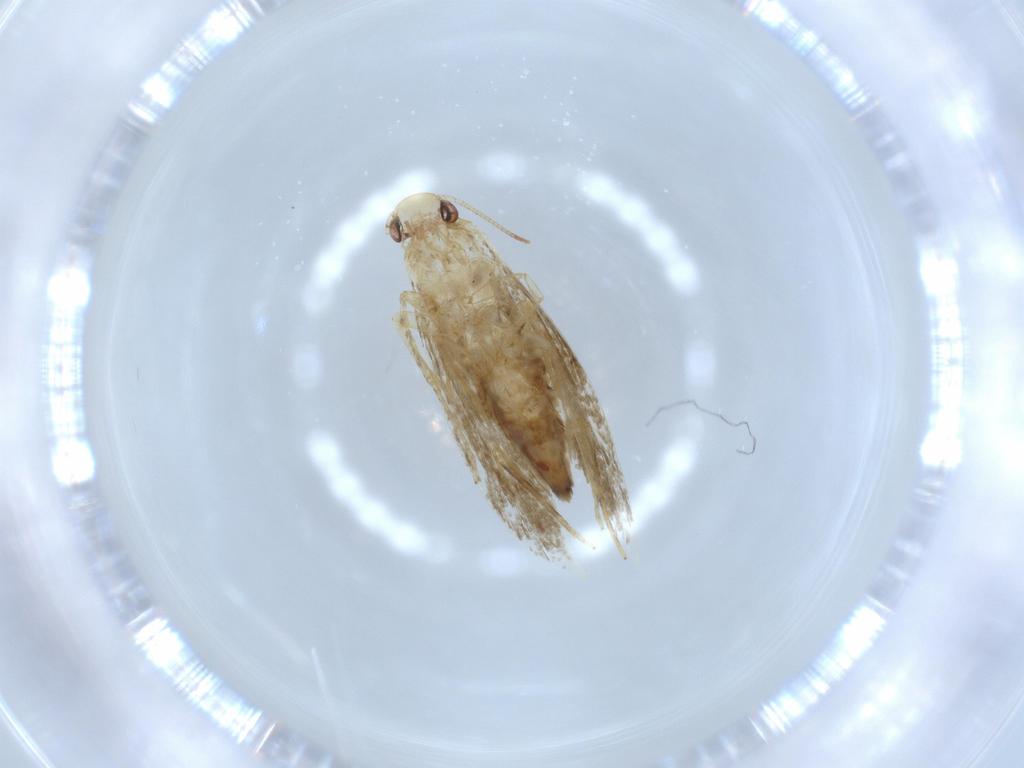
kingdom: Animalia
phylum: Arthropoda
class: Insecta
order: Lepidoptera
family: Tineidae
